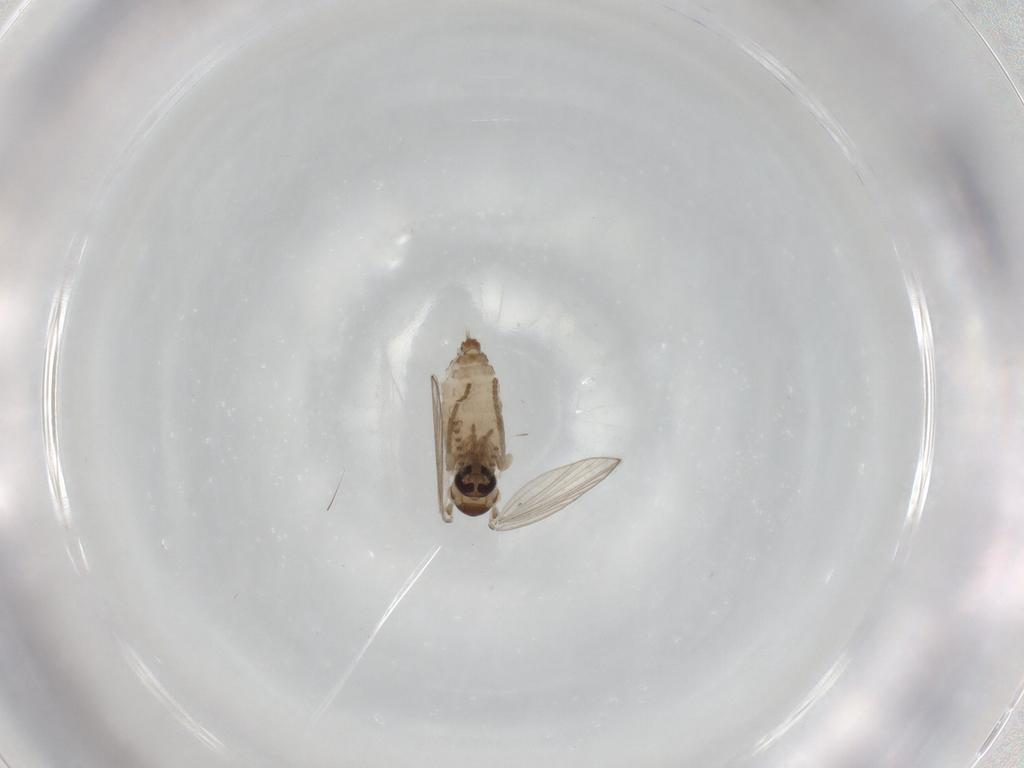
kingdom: Animalia
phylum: Arthropoda
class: Insecta
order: Diptera
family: Psychodidae
